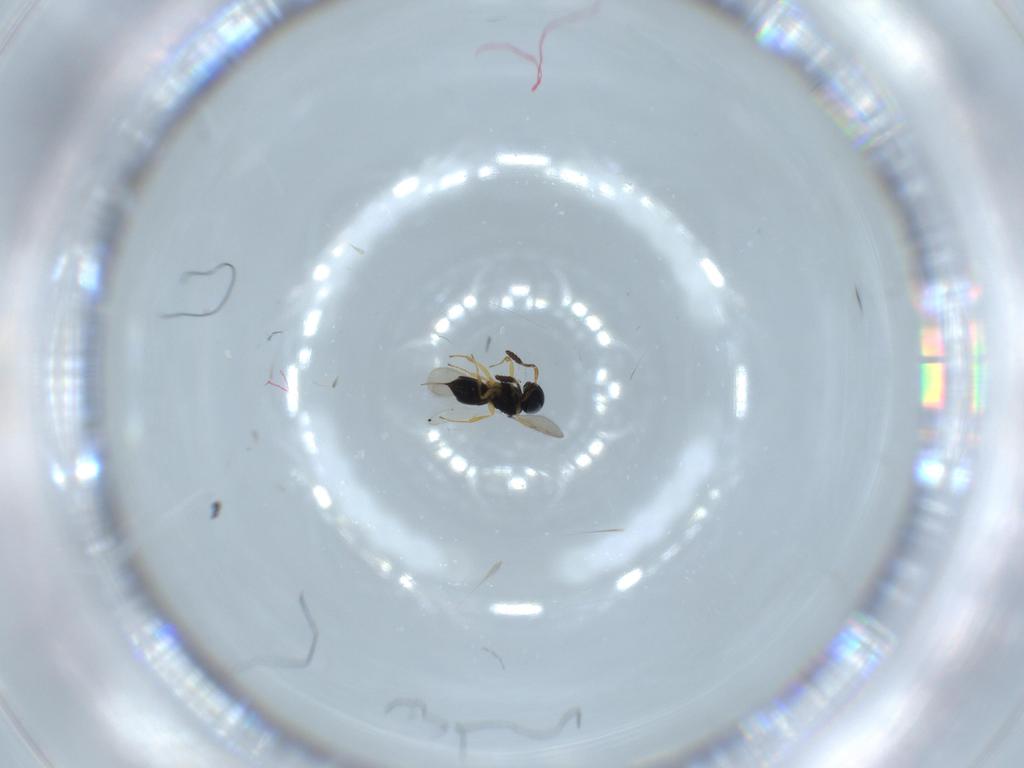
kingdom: Animalia
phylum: Arthropoda
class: Insecta
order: Hymenoptera
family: Scelionidae
